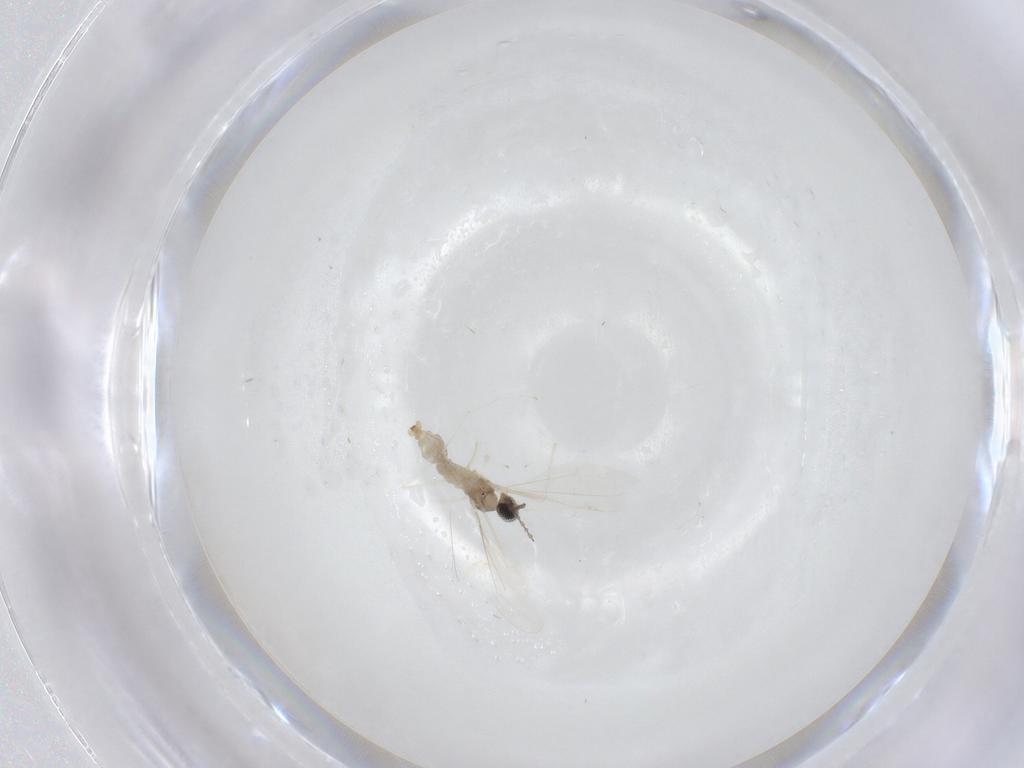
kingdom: Animalia
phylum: Arthropoda
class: Insecta
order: Diptera
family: Cecidomyiidae
